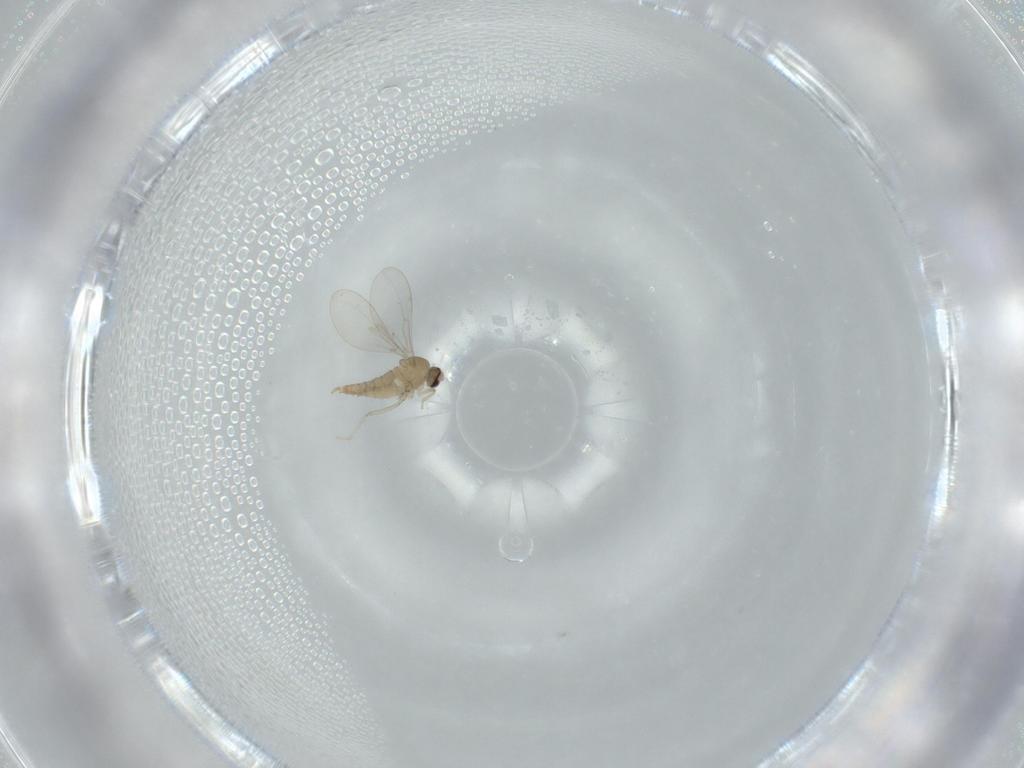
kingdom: Animalia
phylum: Arthropoda
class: Insecta
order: Diptera
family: Cecidomyiidae
